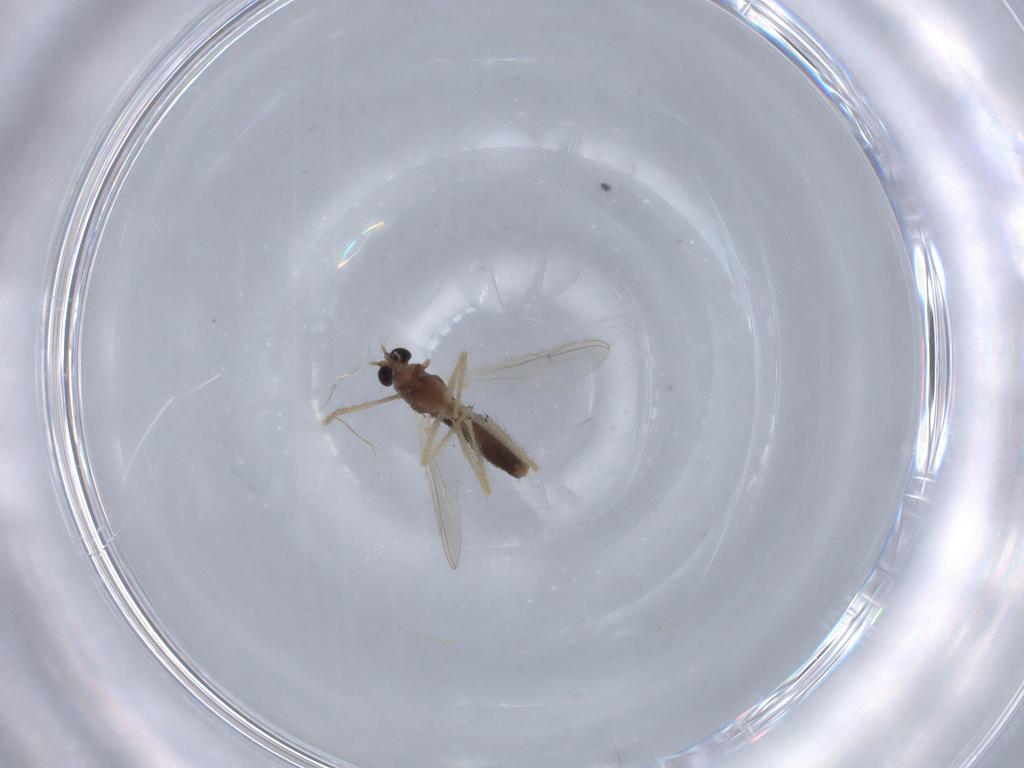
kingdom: Animalia
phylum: Arthropoda
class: Insecta
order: Diptera
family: Chironomidae
